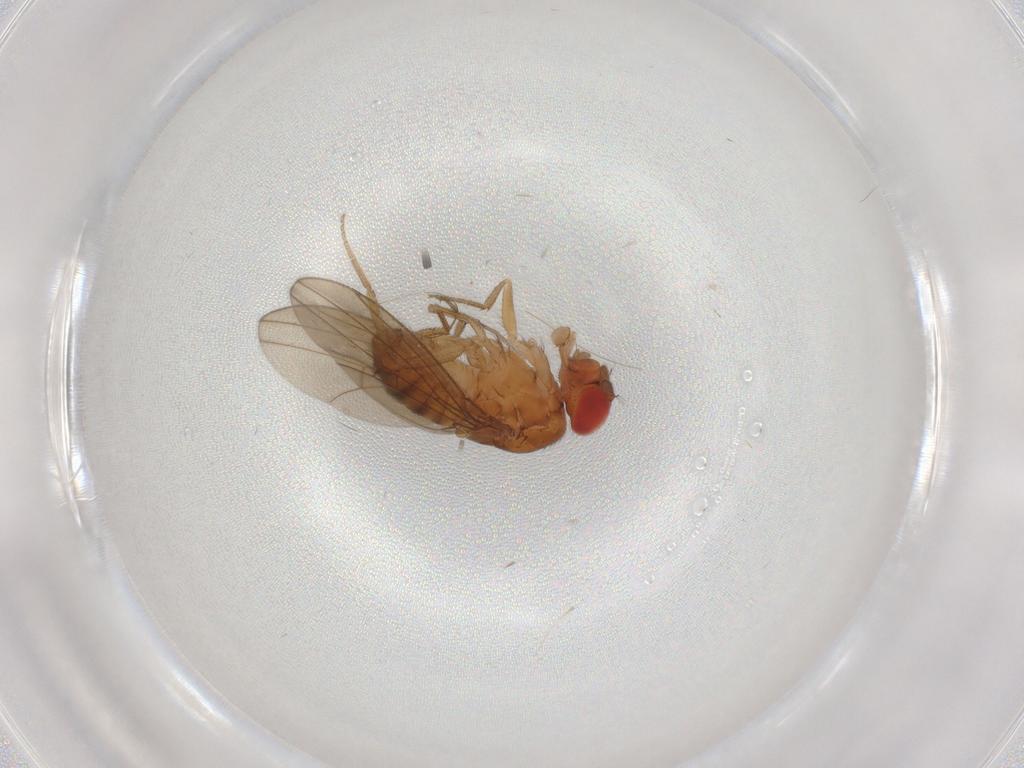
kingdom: Animalia
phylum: Arthropoda
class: Insecta
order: Diptera
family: Drosophilidae
